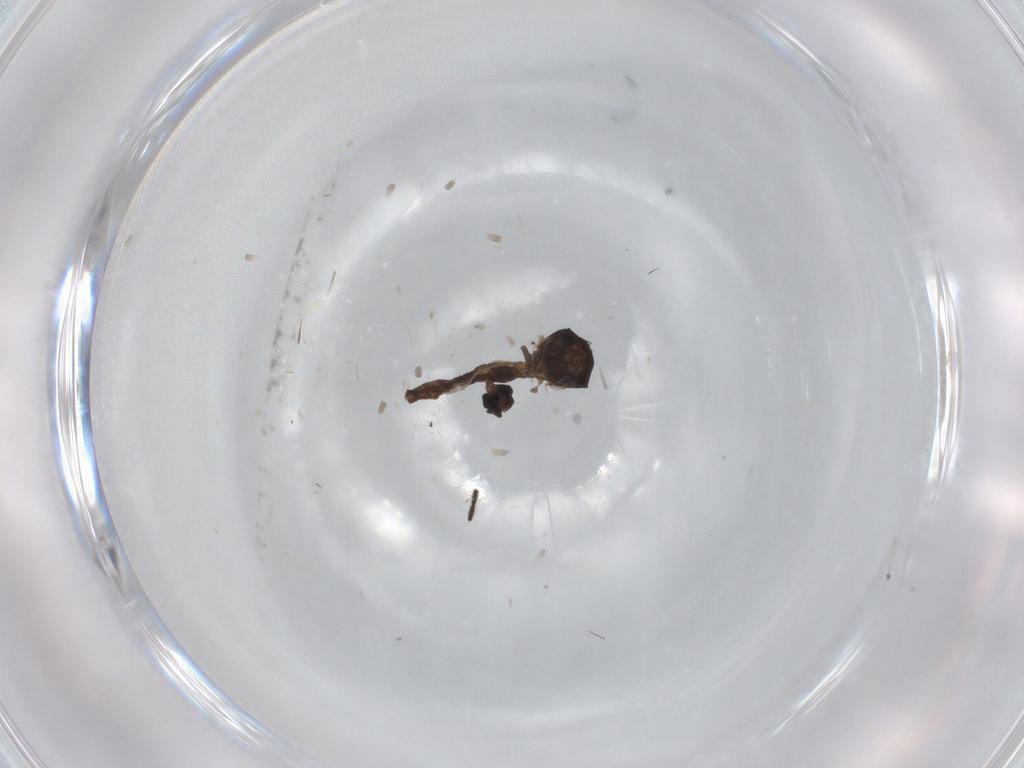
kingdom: Animalia
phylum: Arthropoda
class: Insecta
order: Diptera
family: Ceratopogonidae
